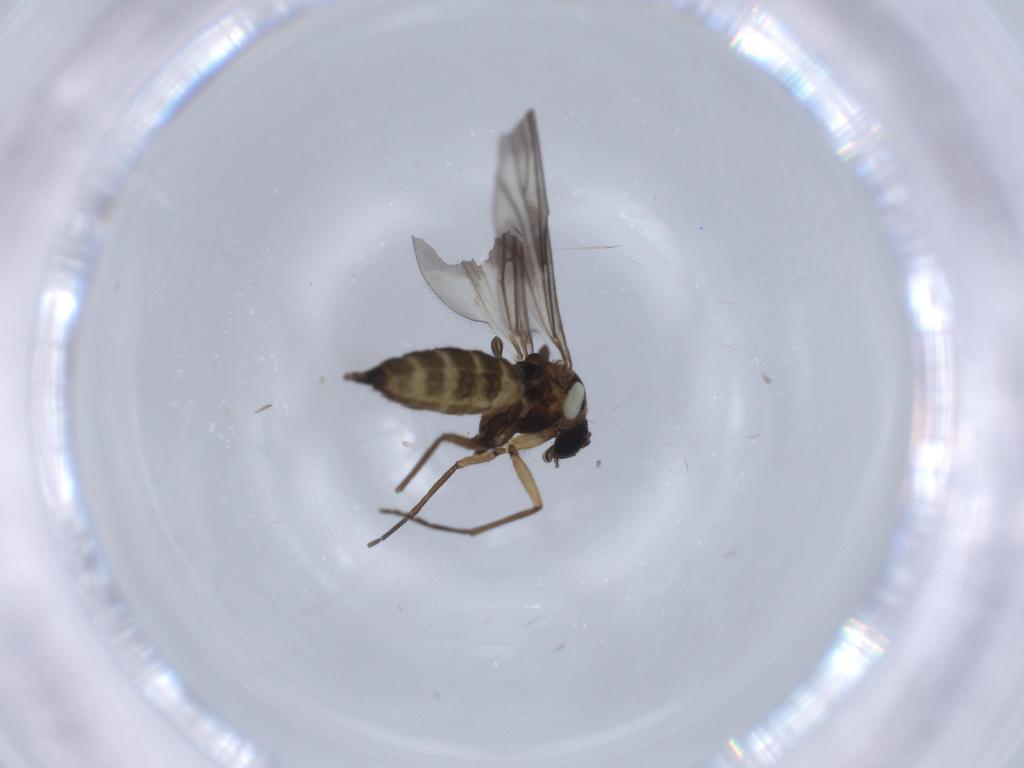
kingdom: Animalia
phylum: Arthropoda
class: Insecta
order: Diptera
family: Sciaridae
